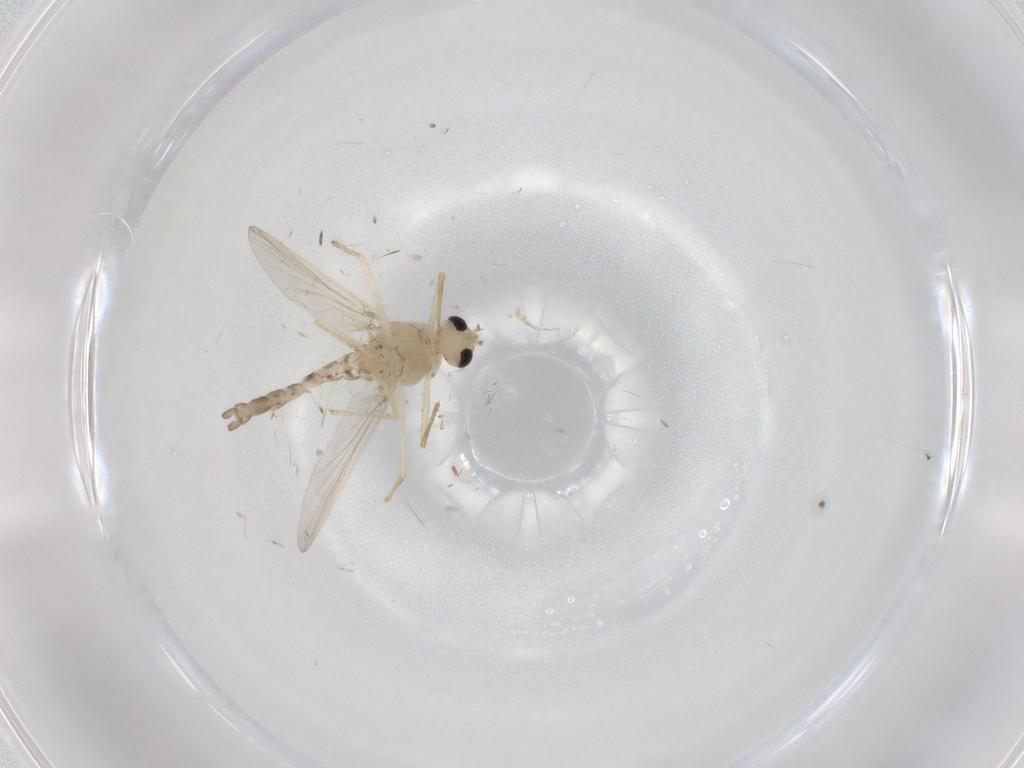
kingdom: Animalia
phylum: Arthropoda
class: Insecta
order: Diptera
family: Chironomidae
